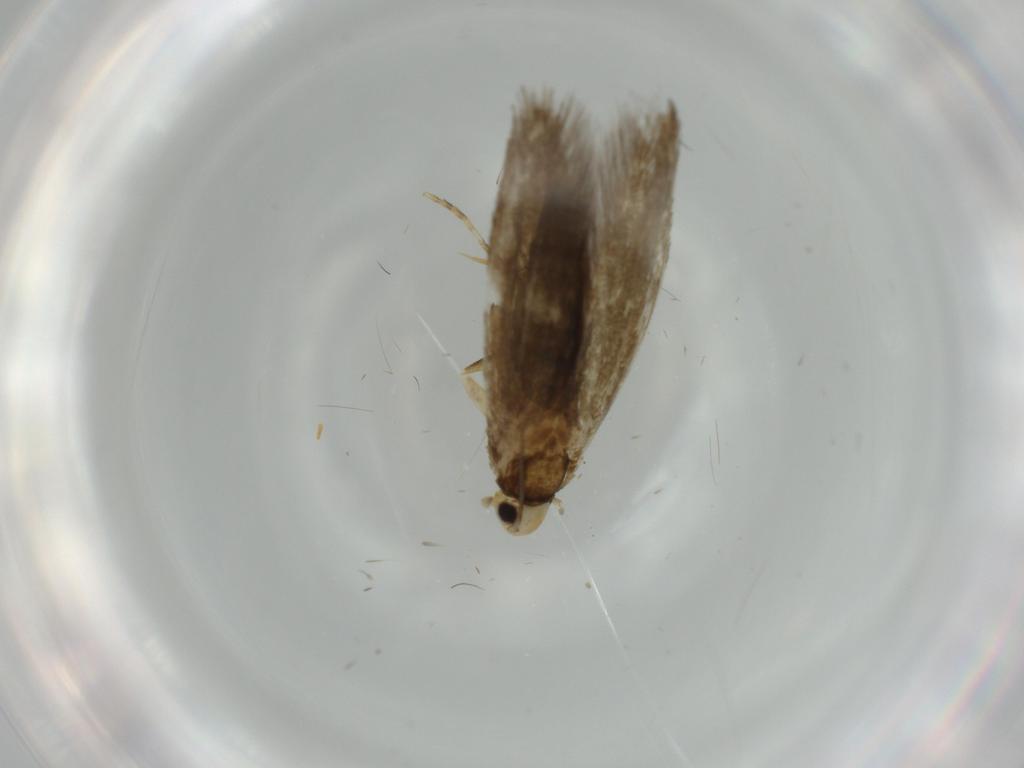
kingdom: Animalia
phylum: Arthropoda
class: Insecta
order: Lepidoptera
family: Tineidae
